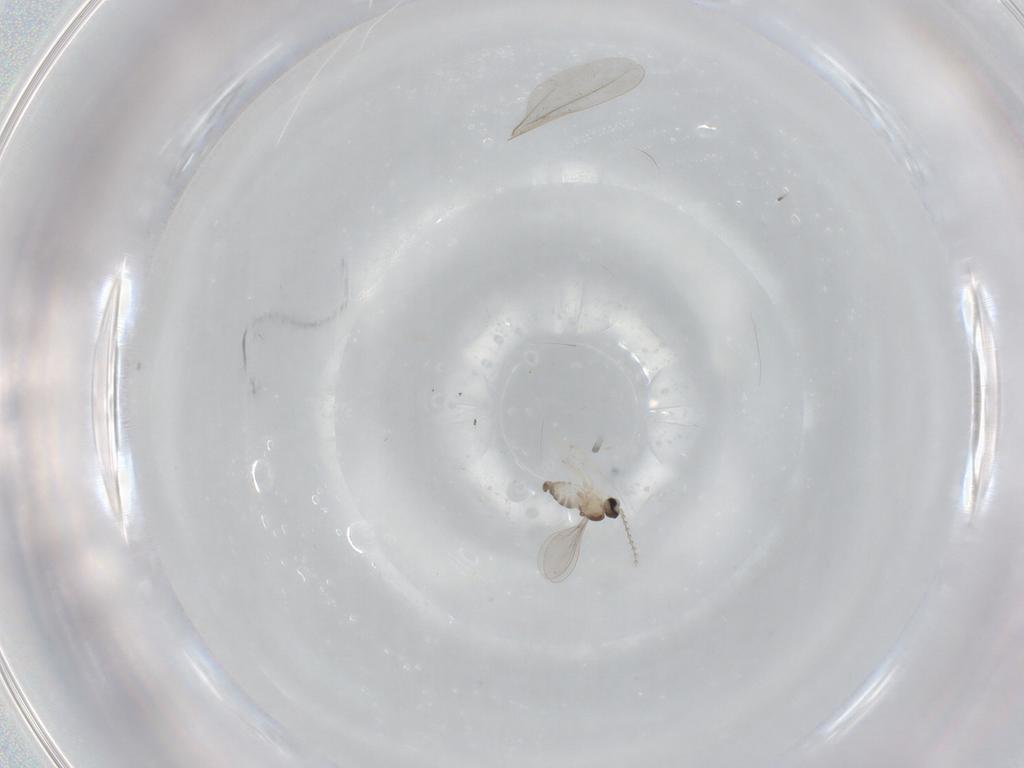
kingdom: Animalia
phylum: Arthropoda
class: Insecta
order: Diptera
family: Cecidomyiidae
